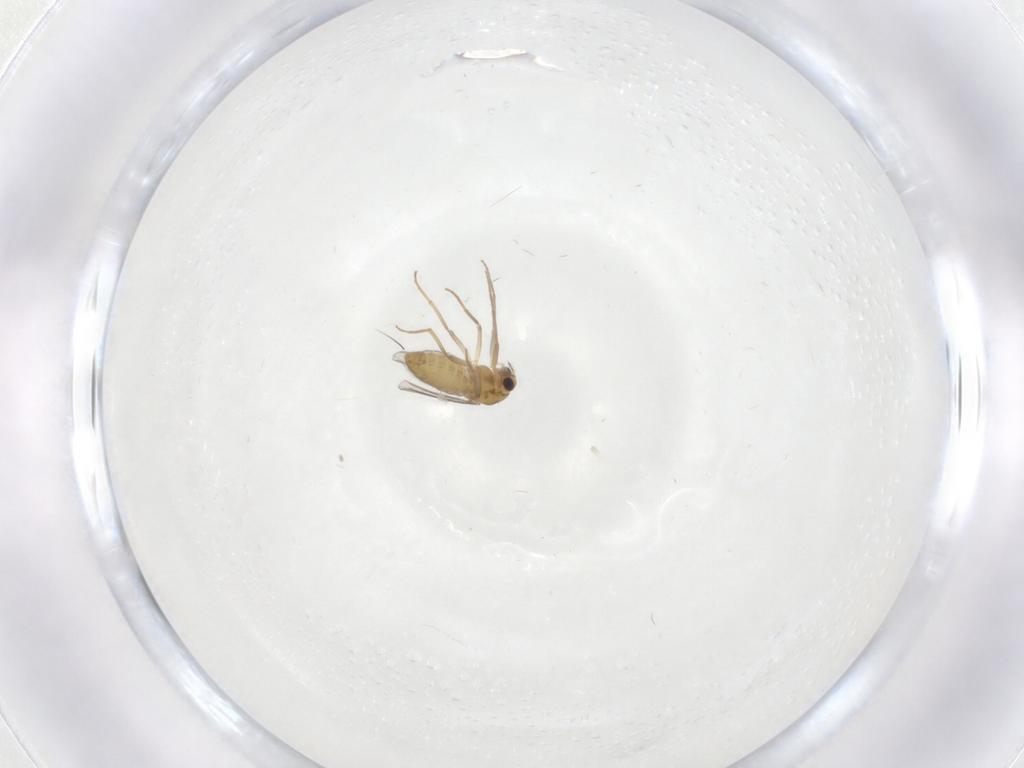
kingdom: Animalia
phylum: Arthropoda
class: Insecta
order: Diptera
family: Chironomidae
